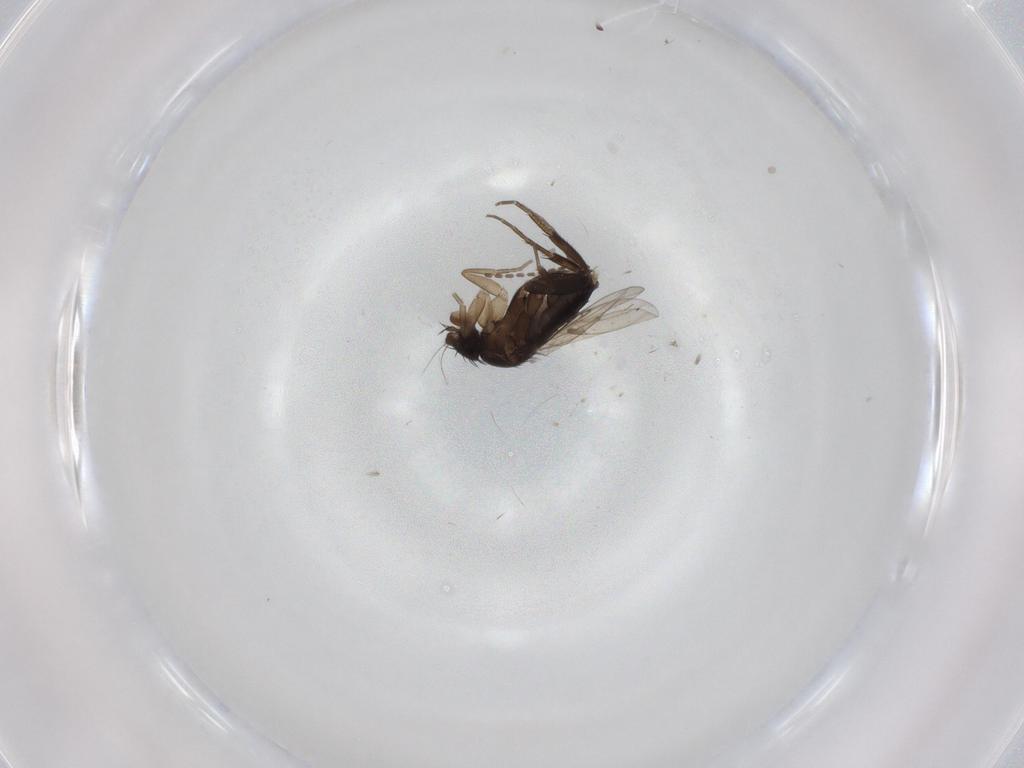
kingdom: Animalia
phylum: Arthropoda
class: Insecta
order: Diptera
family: Phoridae
